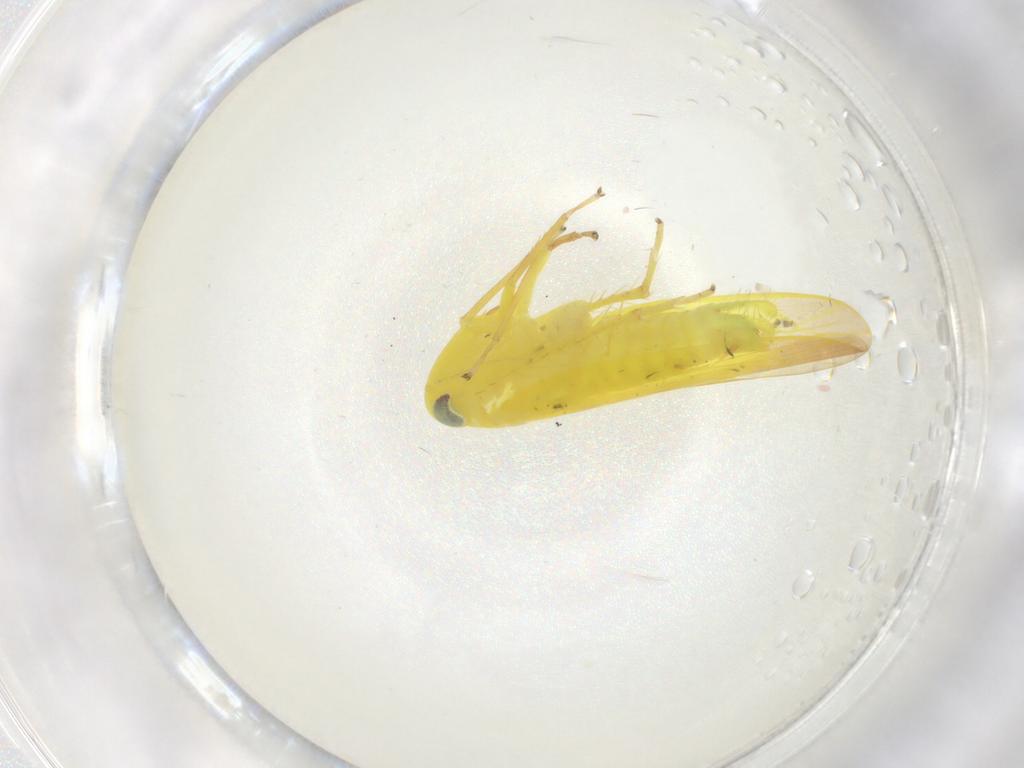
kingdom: Animalia
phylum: Arthropoda
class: Insecta
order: Hemiptera
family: Cicadellidae
